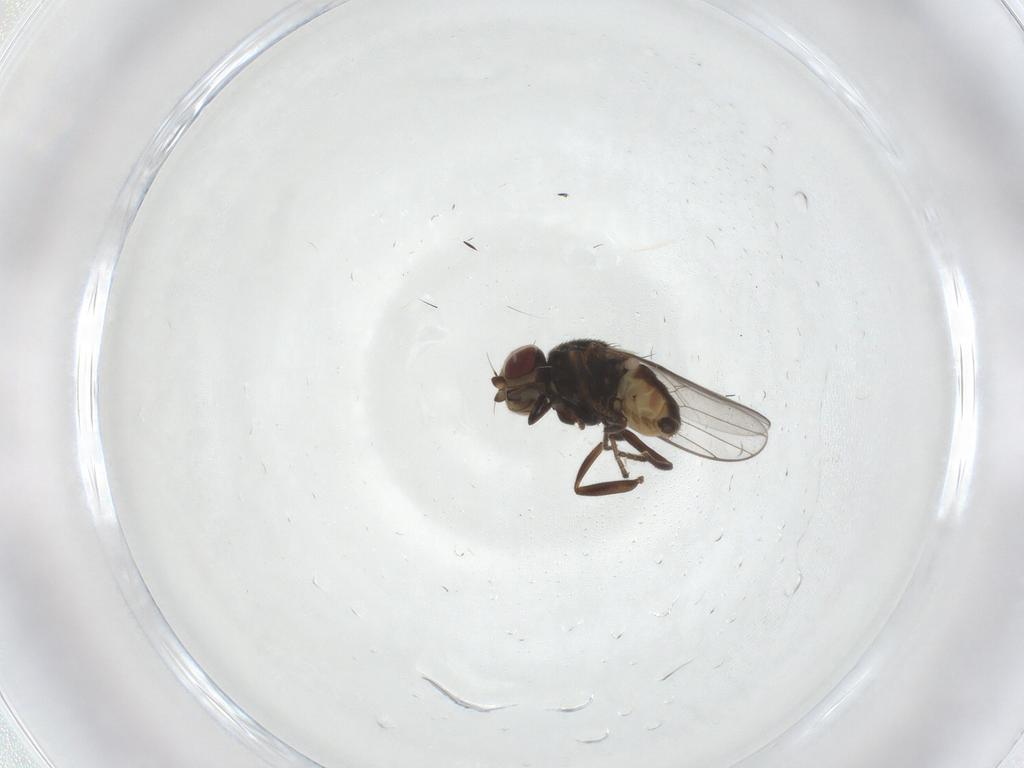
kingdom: Animalia
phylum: Arthropoda
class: Insecta
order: Diptera
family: Chloropidae
